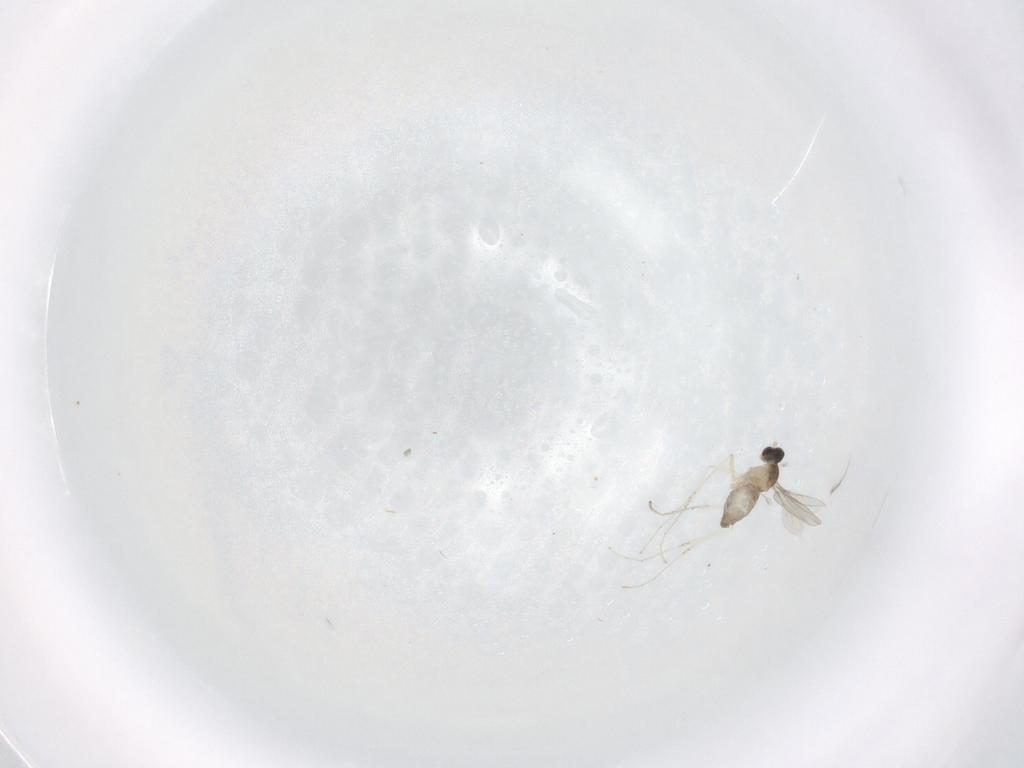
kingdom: Animalia
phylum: Arthropoda
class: Insecta
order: Diptera
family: Cecidomyiidae
